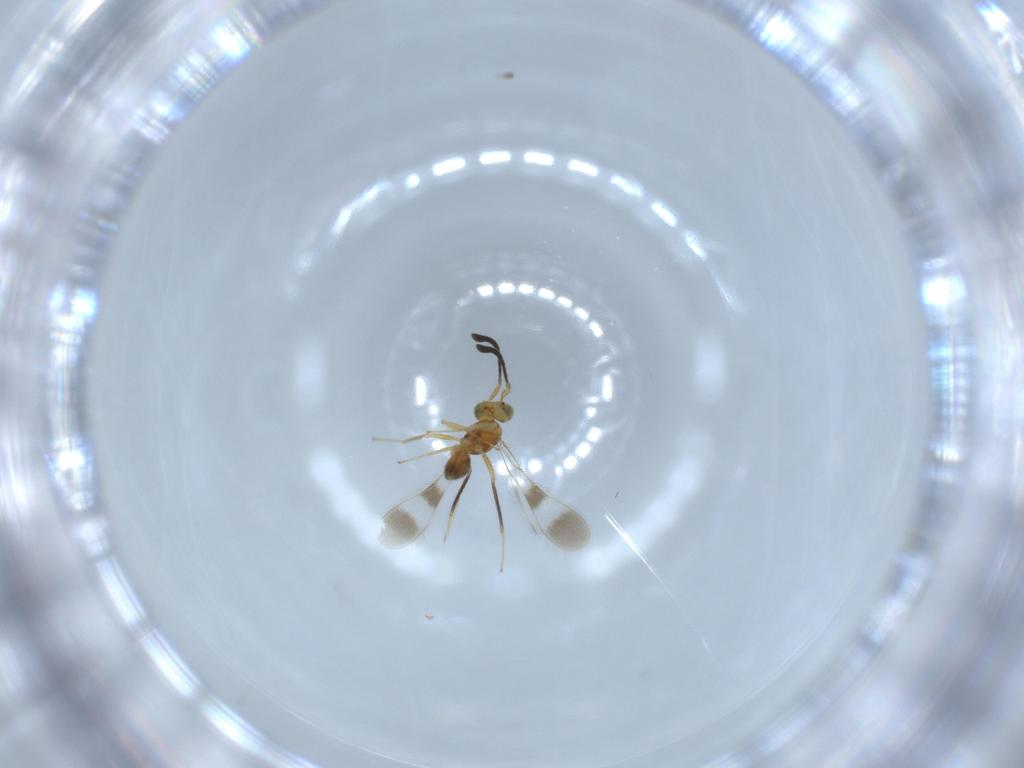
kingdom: Animalia
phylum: Arthropoda
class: Insecta
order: Hymenoptera
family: Mymaridae
